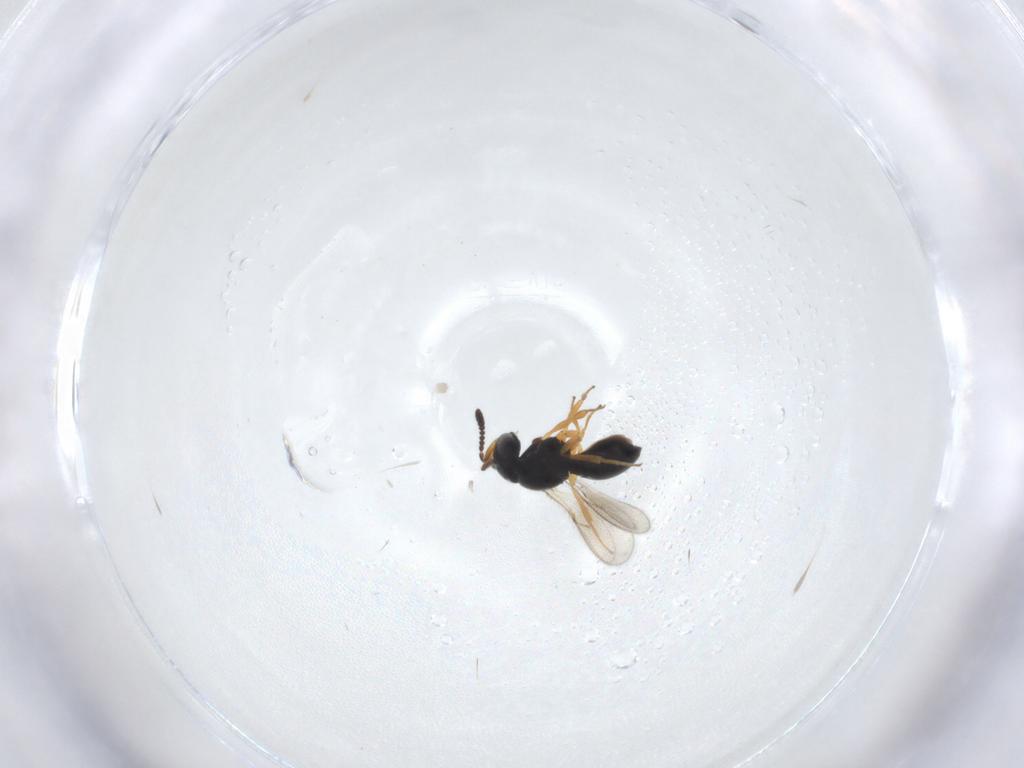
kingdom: Animalia
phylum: Arthropoda
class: Insecta
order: Hymenoptera
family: Scelionidae
